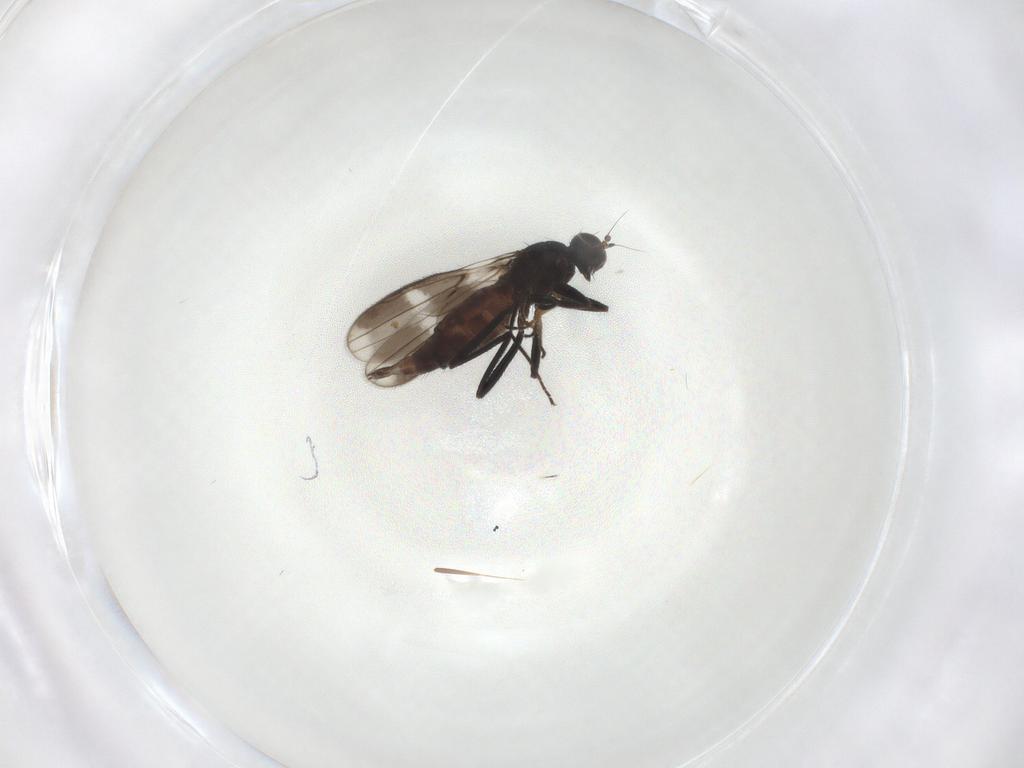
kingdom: Animalia
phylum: Arthropoda
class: Insecta
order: Diptera
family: Hybotidae
